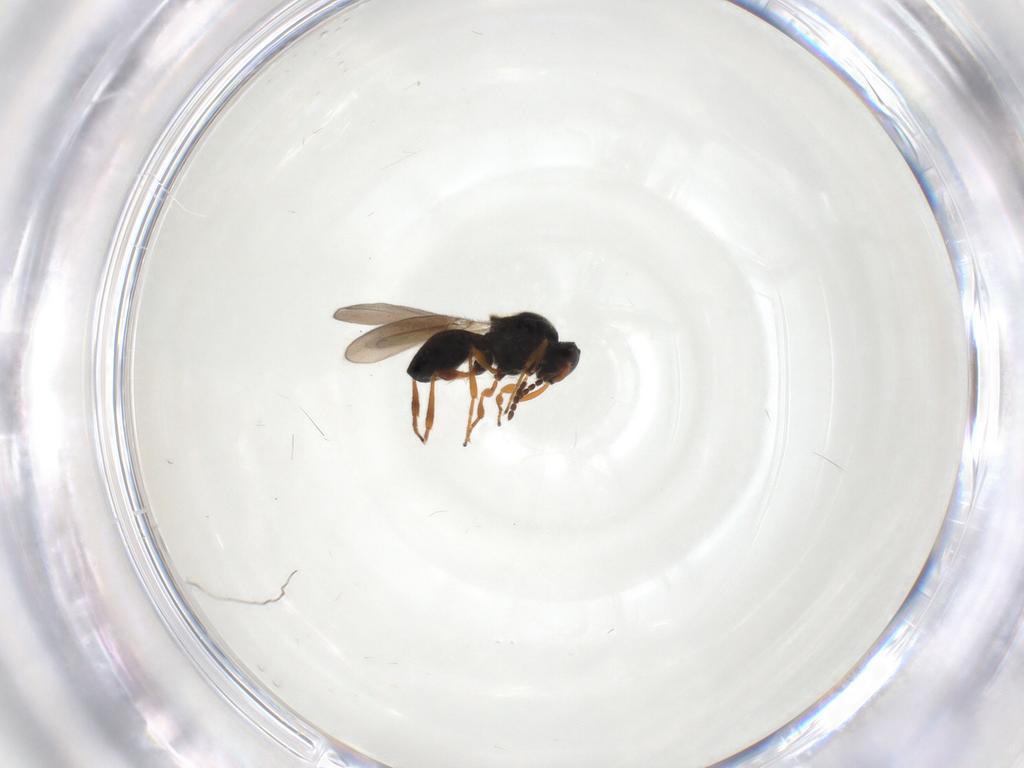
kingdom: Animalia
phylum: Arthropoda
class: Insecta
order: Hymenoptera
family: Platygastridae
